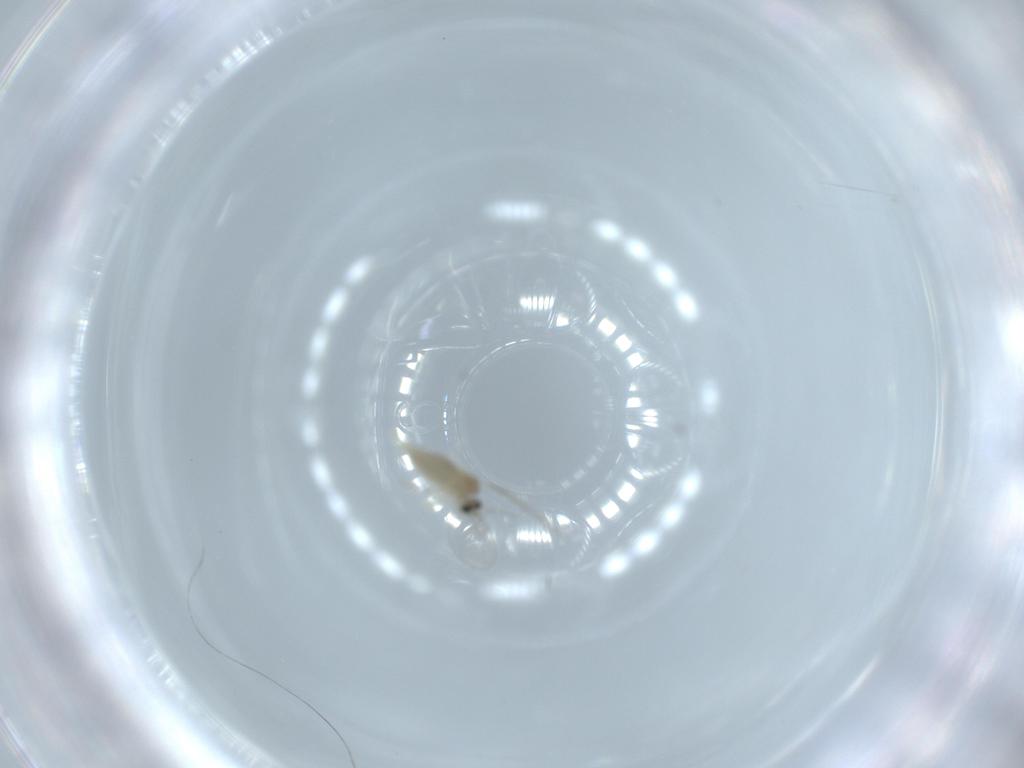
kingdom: Animalia
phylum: Arthropoda
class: Insecta
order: Diptera
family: Cecidomyiidae
